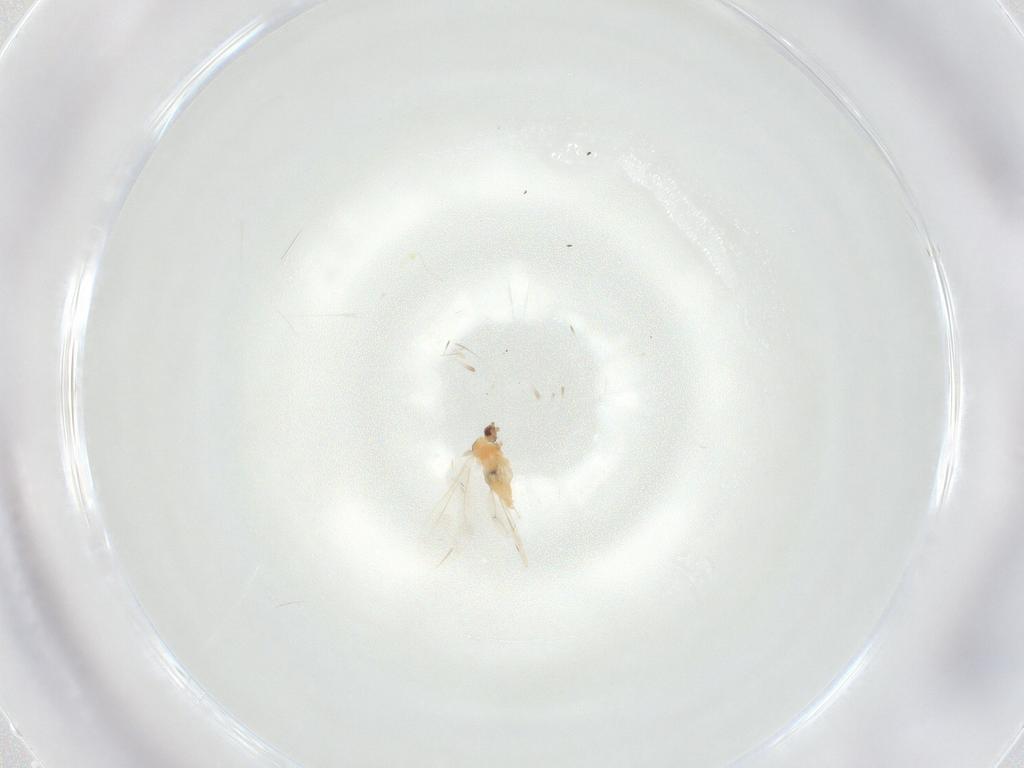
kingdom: Animalia
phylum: Arthropoda
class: Insecta
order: Diptera
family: Cecidomyiidae
